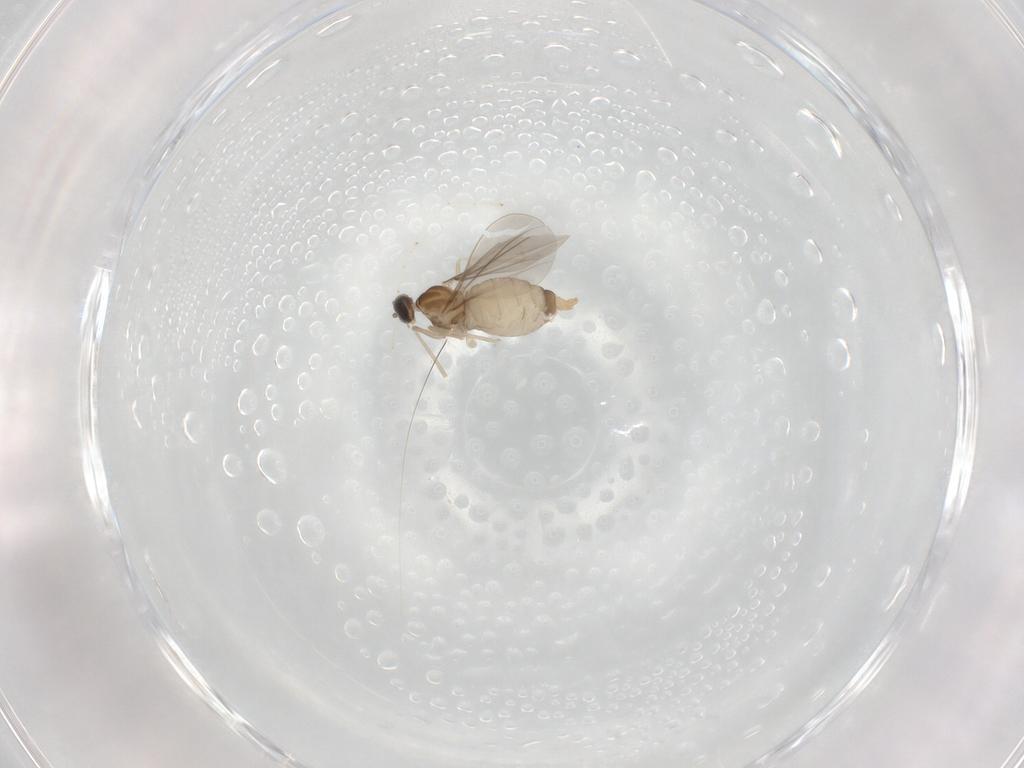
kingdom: Animalia
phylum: Arthropoda
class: Insecta
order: Diptera
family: Cecidomyiidae
